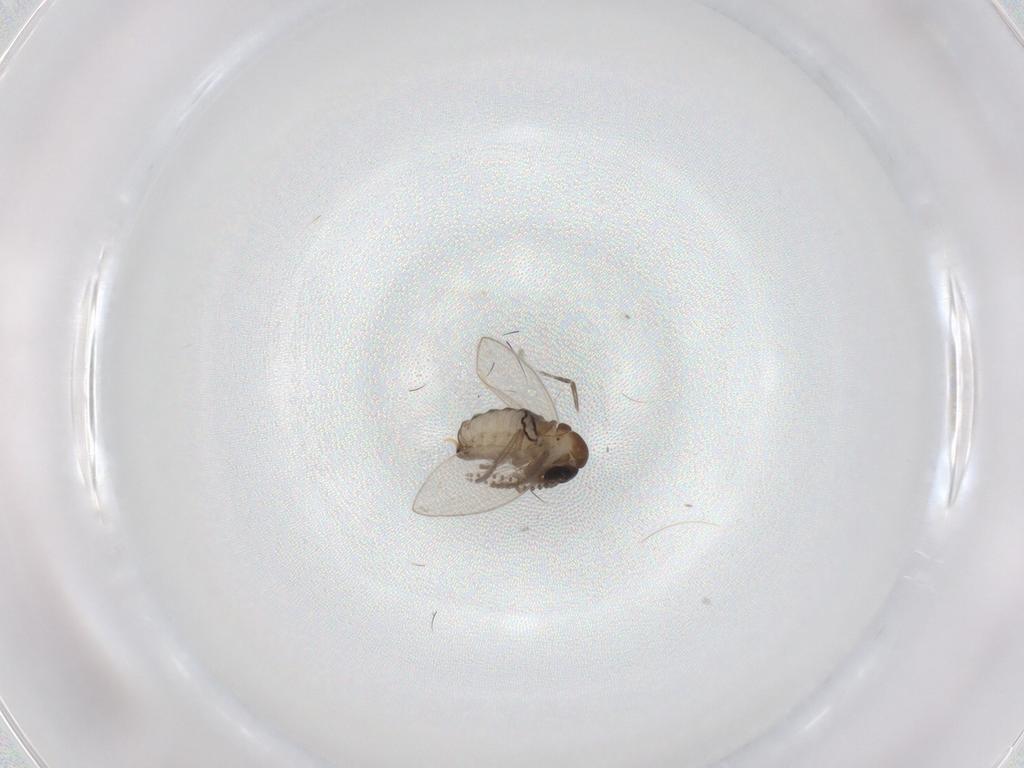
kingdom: Animalia
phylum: Arthropoda
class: Insecta
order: Diptera
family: Psychodidae
